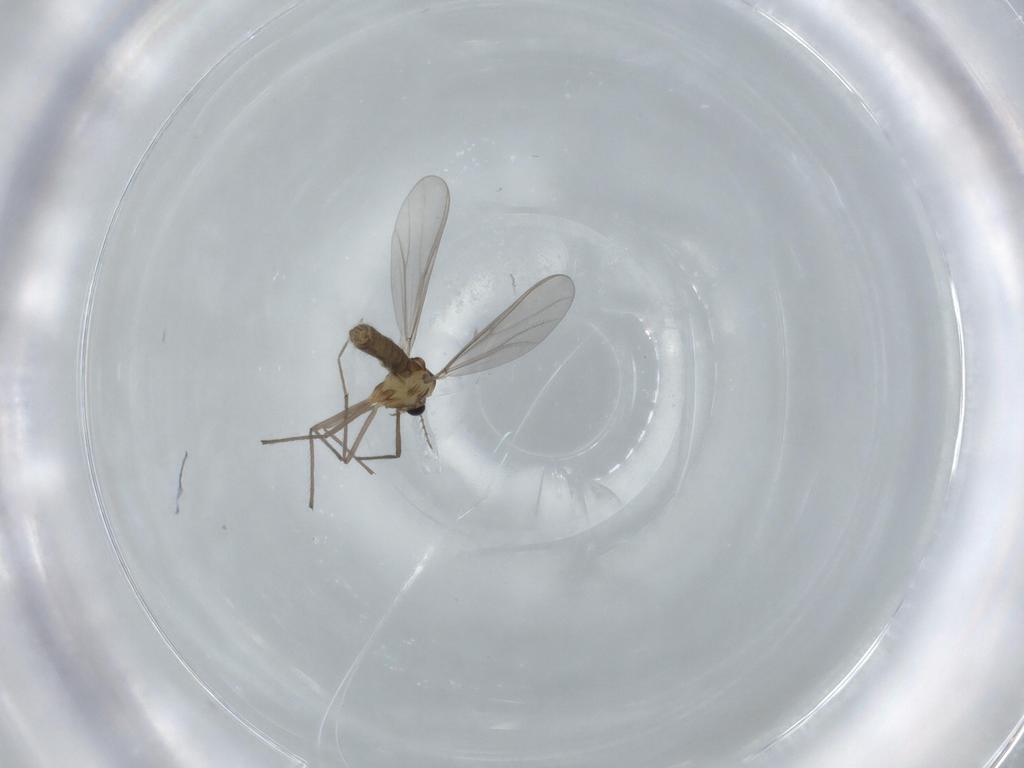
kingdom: Animalia
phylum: Arthropoda
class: Insecta
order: Diptera
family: Chironomidae
